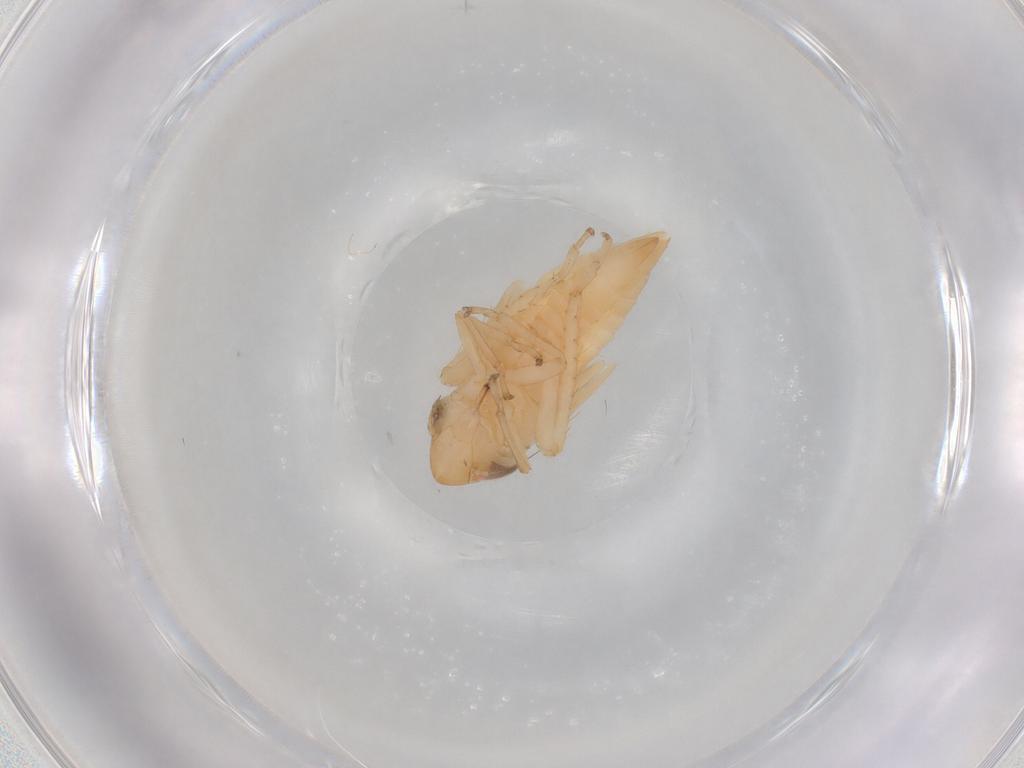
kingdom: Animalia
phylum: Arthropoda
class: Insecta
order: Hemiptera
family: Cicadellidae
